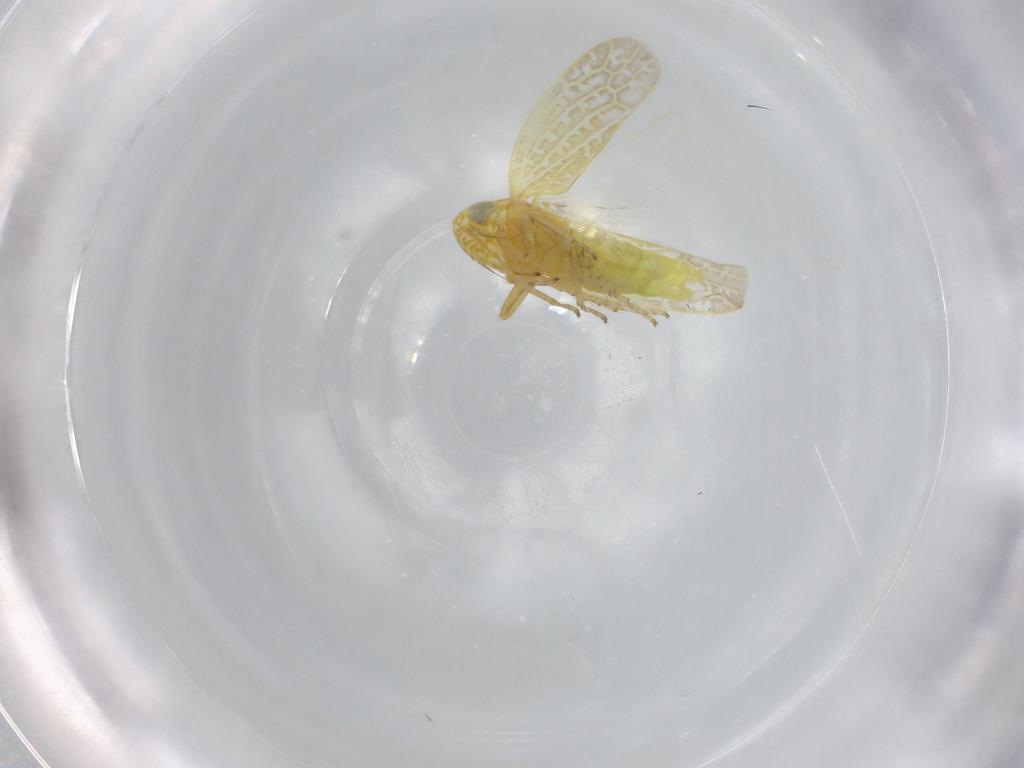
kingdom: Animalia
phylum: Arthropoda
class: Insecta
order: Hemiptera
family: Cicadellidae
